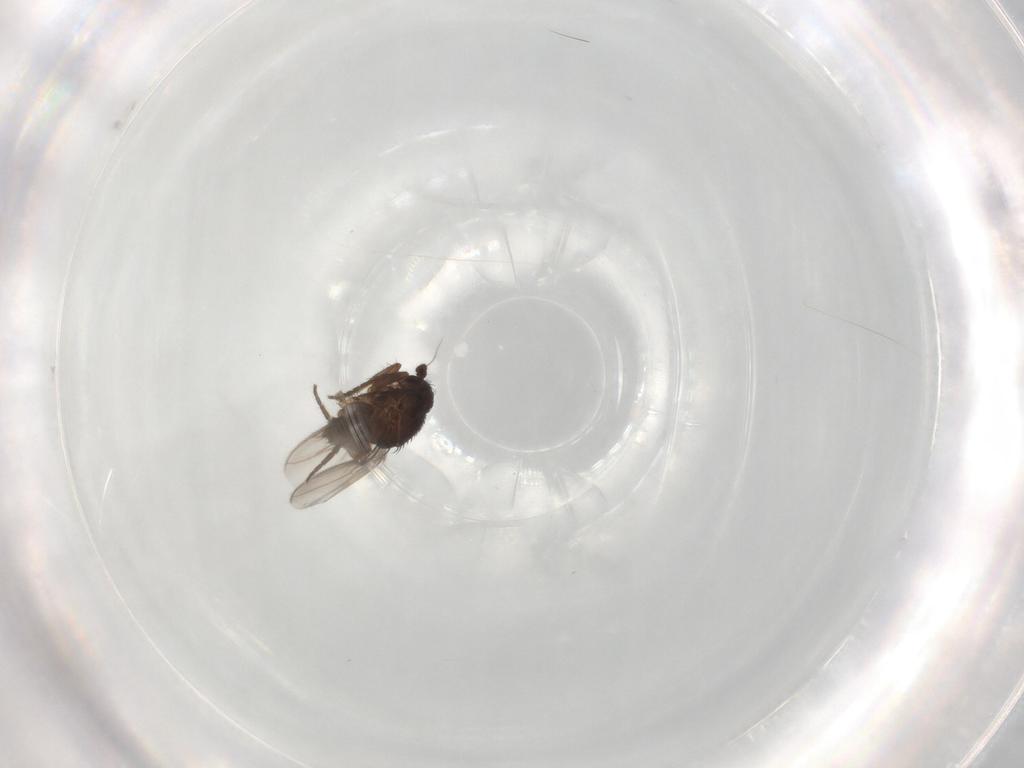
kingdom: Animalia
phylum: Arthropoda
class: Insecta
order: Diptera
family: Sphaeroceridae
